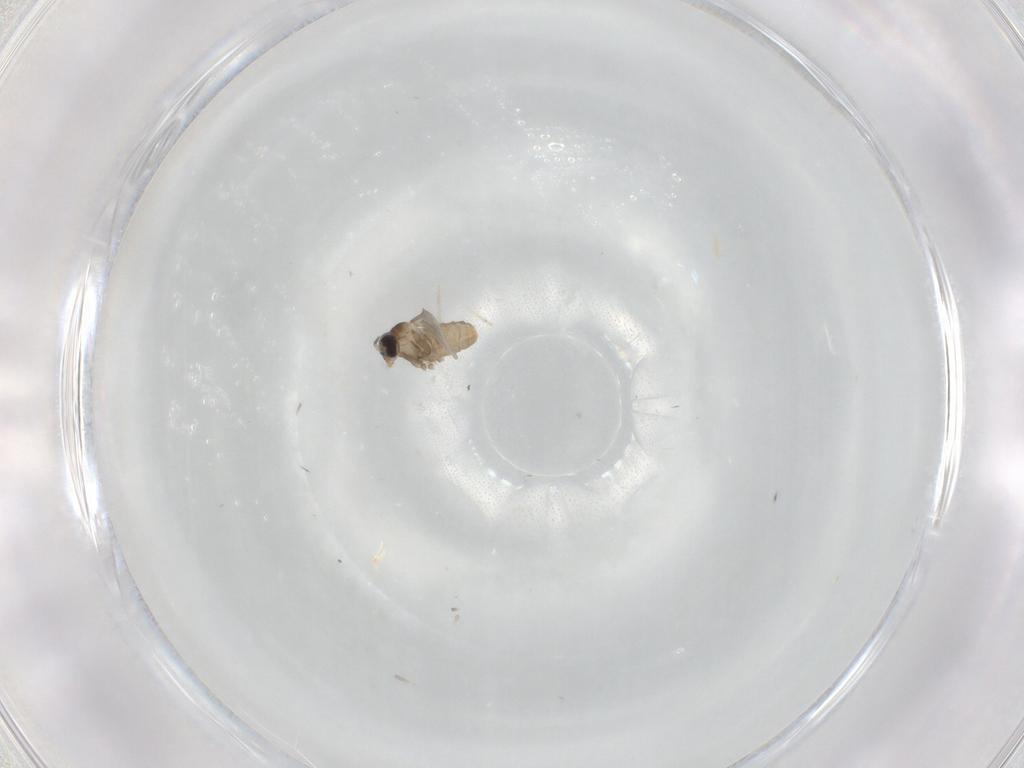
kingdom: Animalia
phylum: Arthropoda
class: Insecta
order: Diptera
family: Cecidomyiidae
